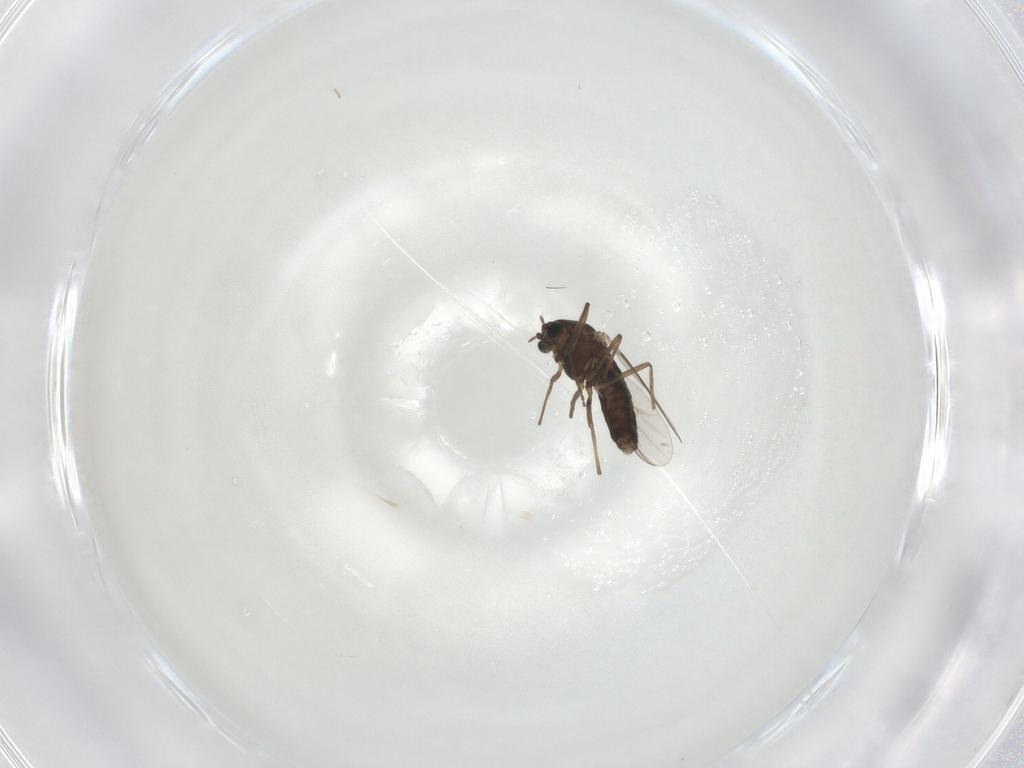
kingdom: Animalia
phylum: Arthropoda
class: Insecta
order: Diptera
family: Chironomidae
